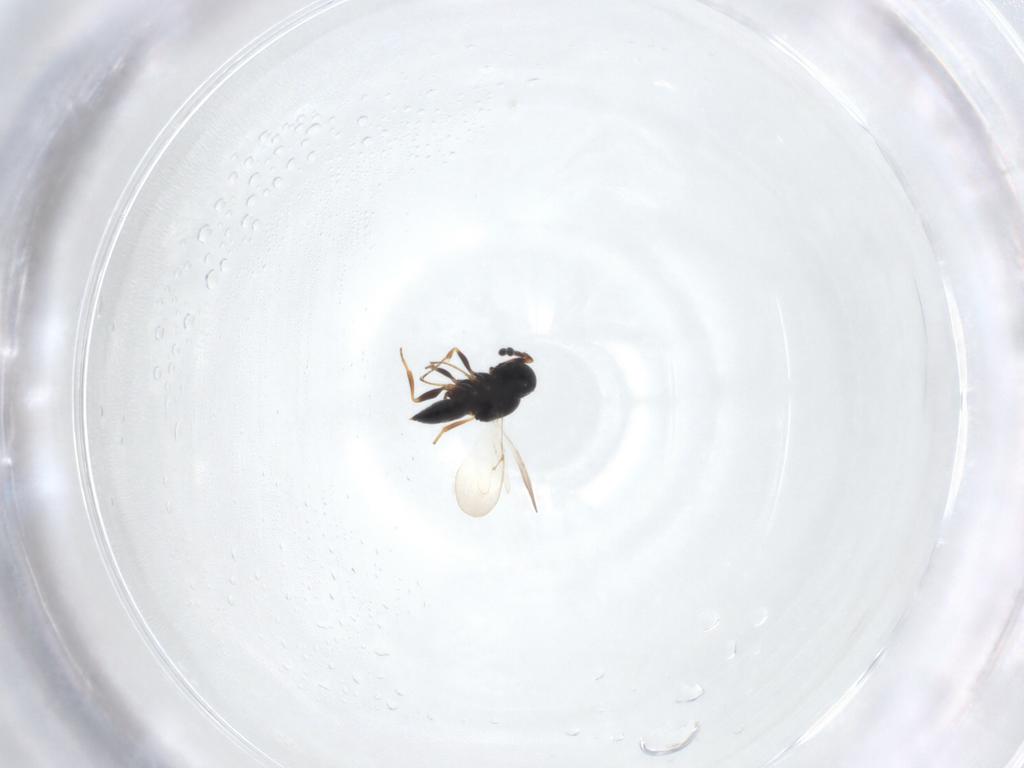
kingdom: Animalia
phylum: Arthropoda
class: Insecta
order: Hymenoptera
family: Scelionidae
